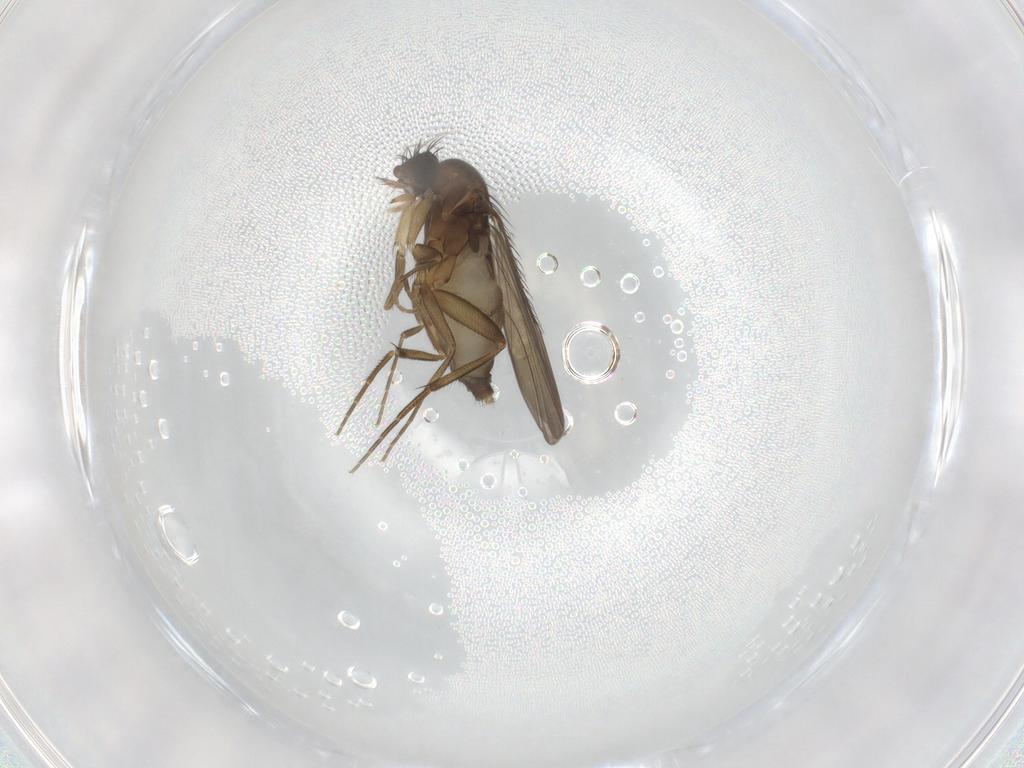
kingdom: Animalia
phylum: Arthropoda
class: Insecta
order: Diptera
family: Phoridae
